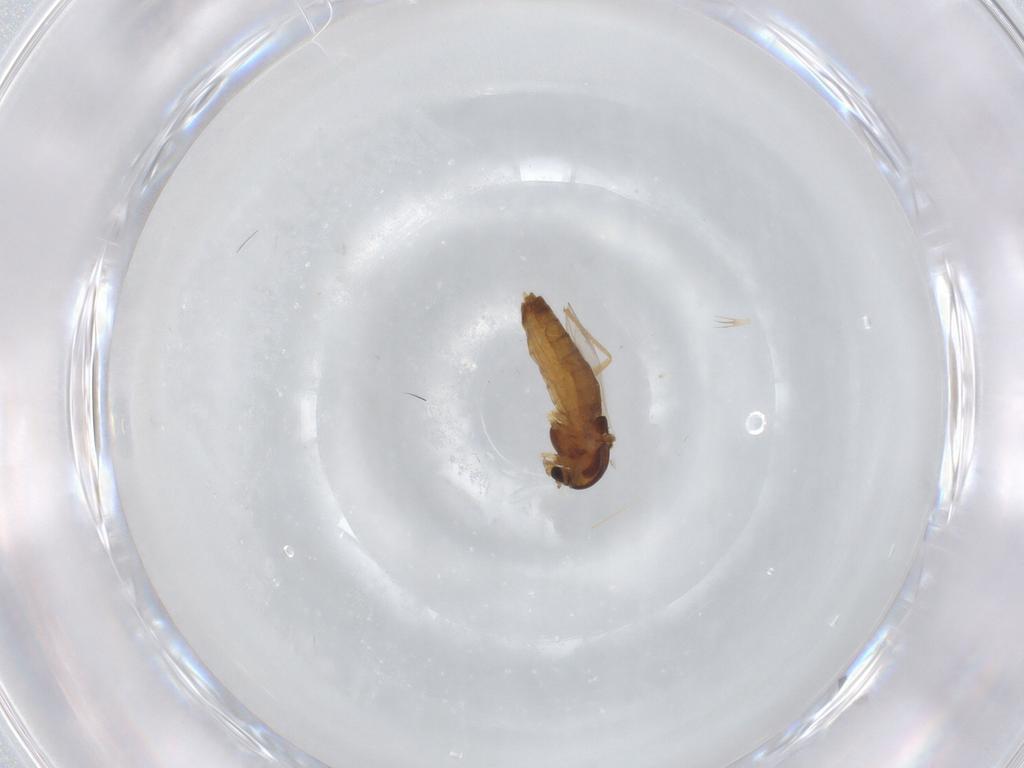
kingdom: Animalia
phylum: Arthropoda
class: Insecta
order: Diptera
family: Chironomidae
